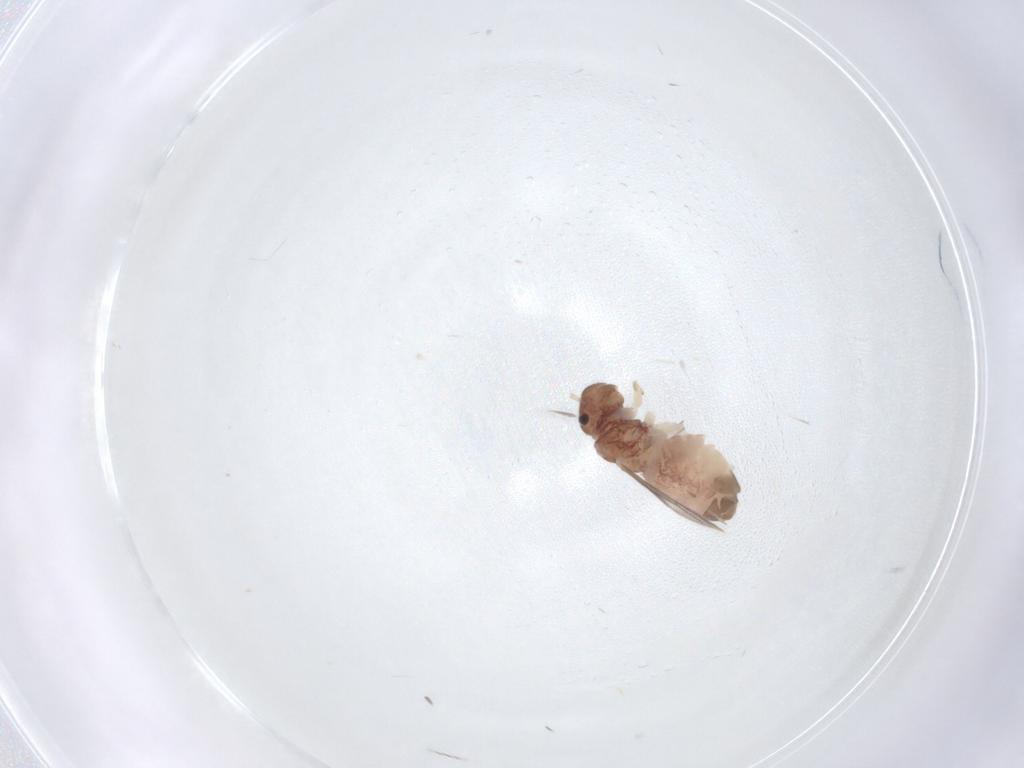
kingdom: Animalia
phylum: Arthropoda
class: Insecta
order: Psocodea
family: Archipsocidae
